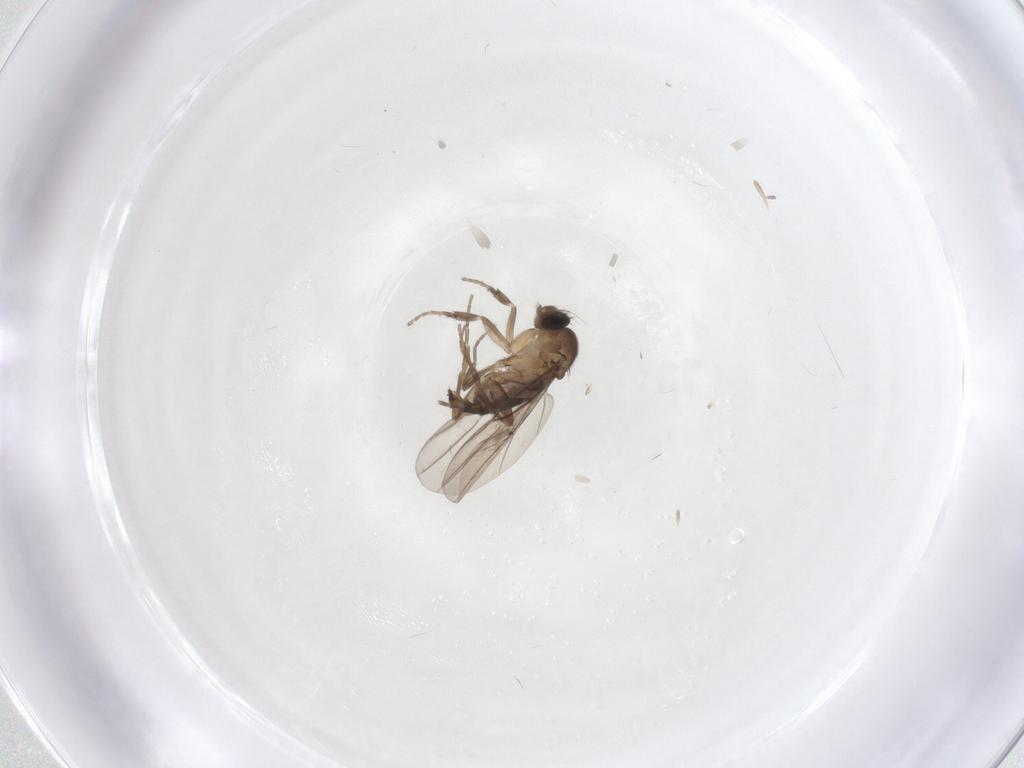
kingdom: Animalia
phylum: Arthropoda
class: Insecta
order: Diptera
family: Phoridae
